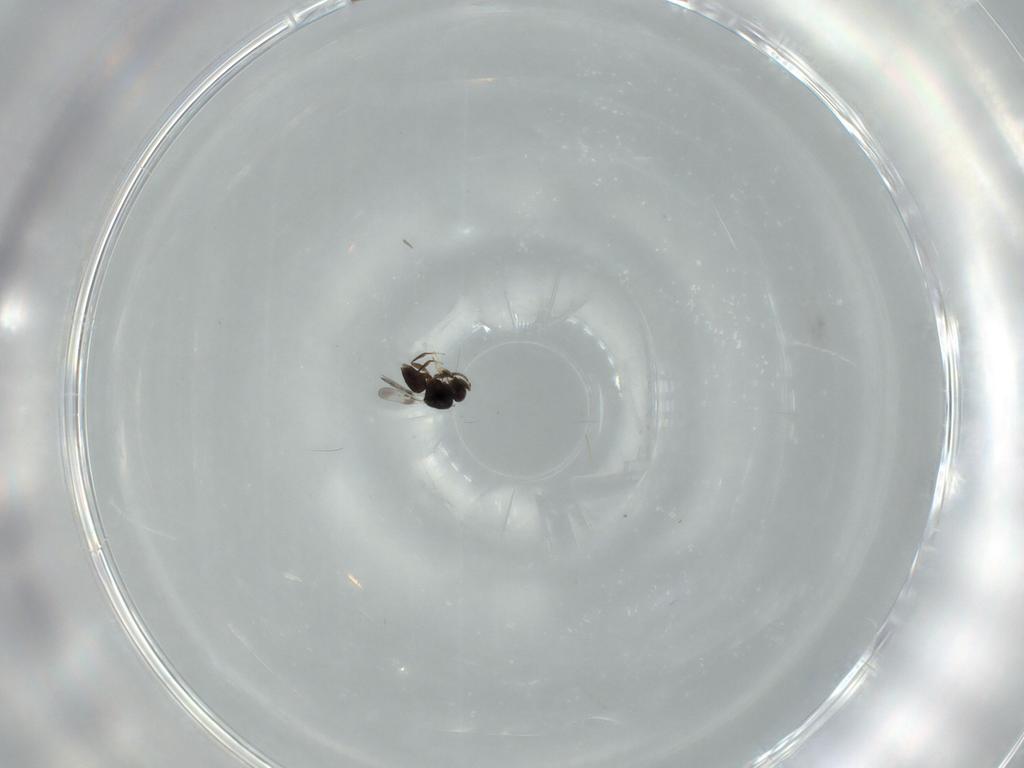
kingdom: Animalia
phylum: Arthropoda
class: Insecta
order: Hymenoptera
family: Ceraphronidae
